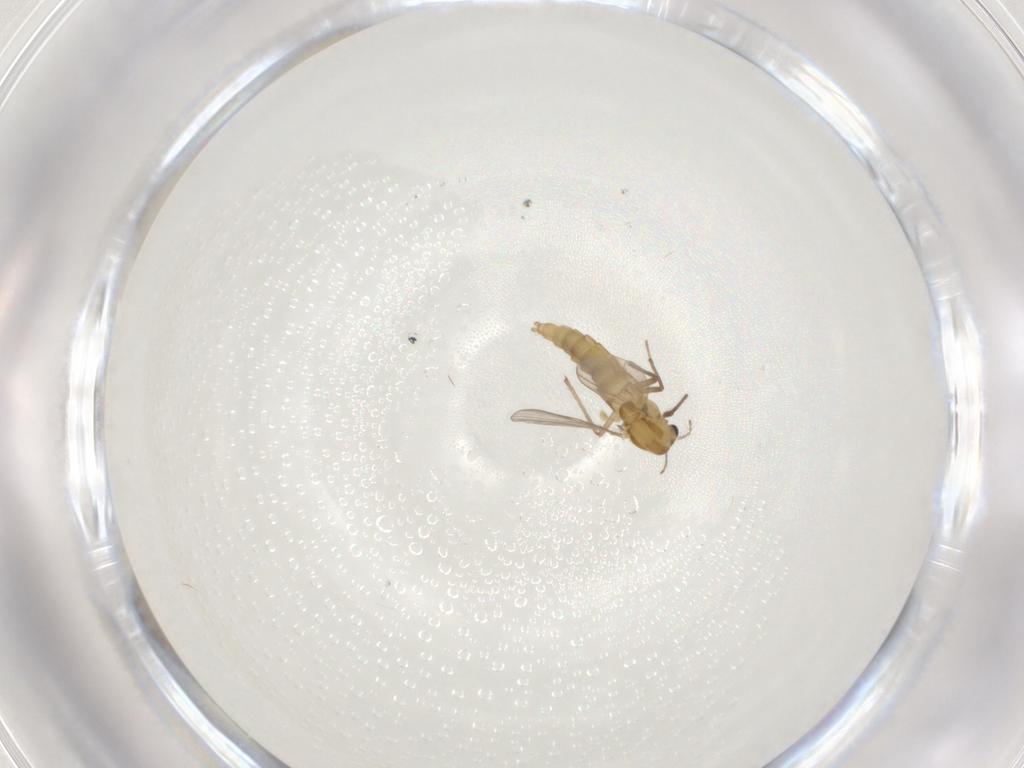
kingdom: Animalia
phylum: Arthropoda
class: Insecta
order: Diptera
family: Chironomidae
